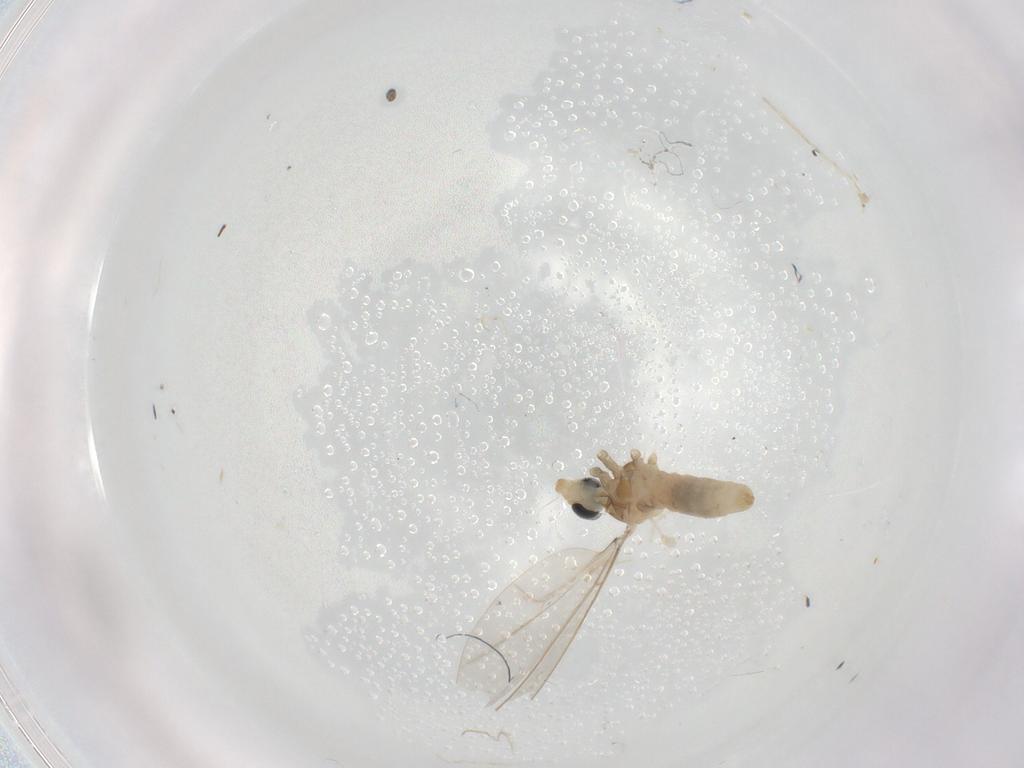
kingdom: Animalia
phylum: Arthropoda
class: Insecta
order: Diptera
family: Cecidomyiidae
